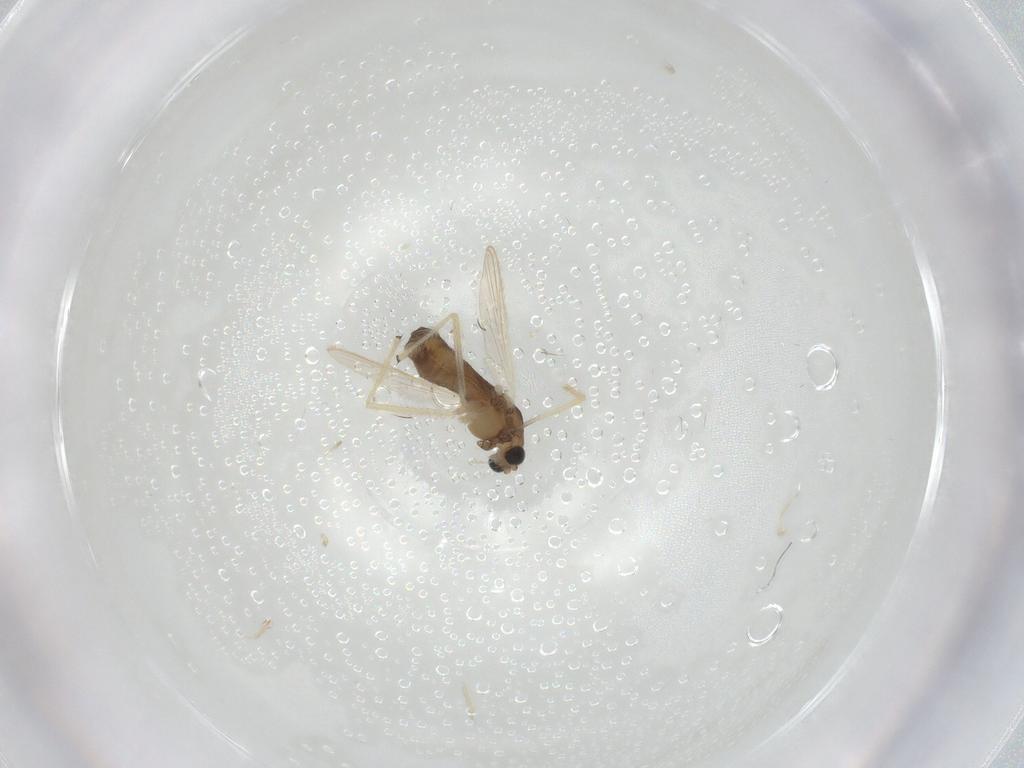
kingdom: Animalia
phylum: Arthropoda
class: Insecta
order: Diptera
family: Chironomidae
